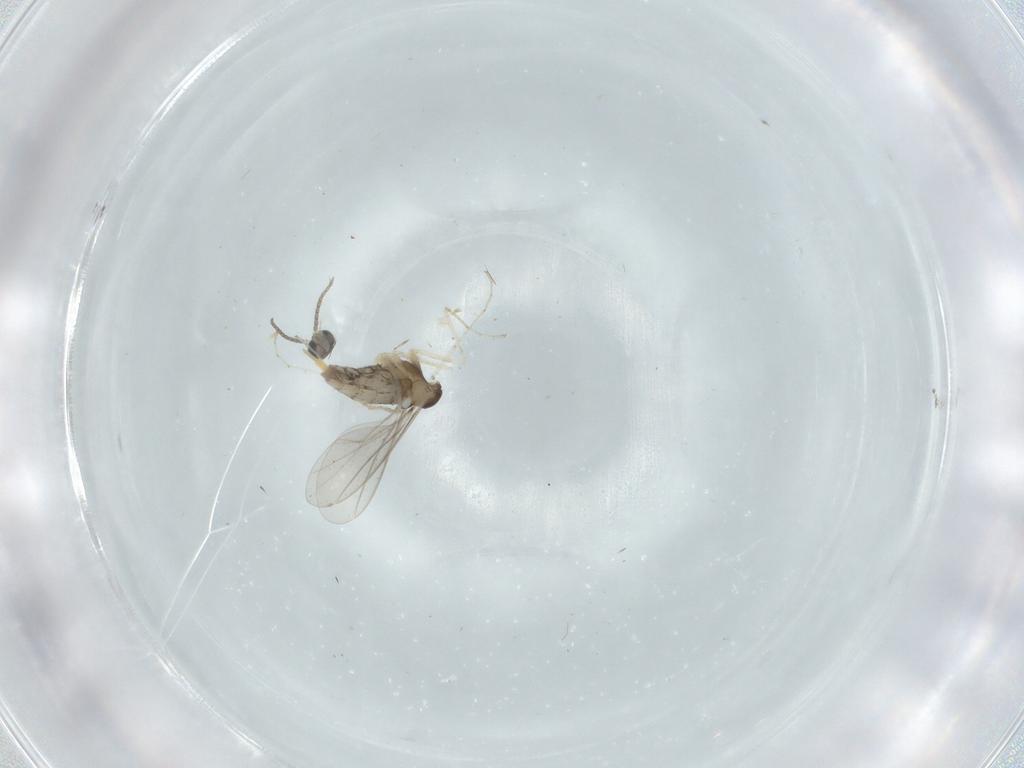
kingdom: Animalia
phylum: Arthropoda
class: Insecta
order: Diptera
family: Cecidomyiidae
